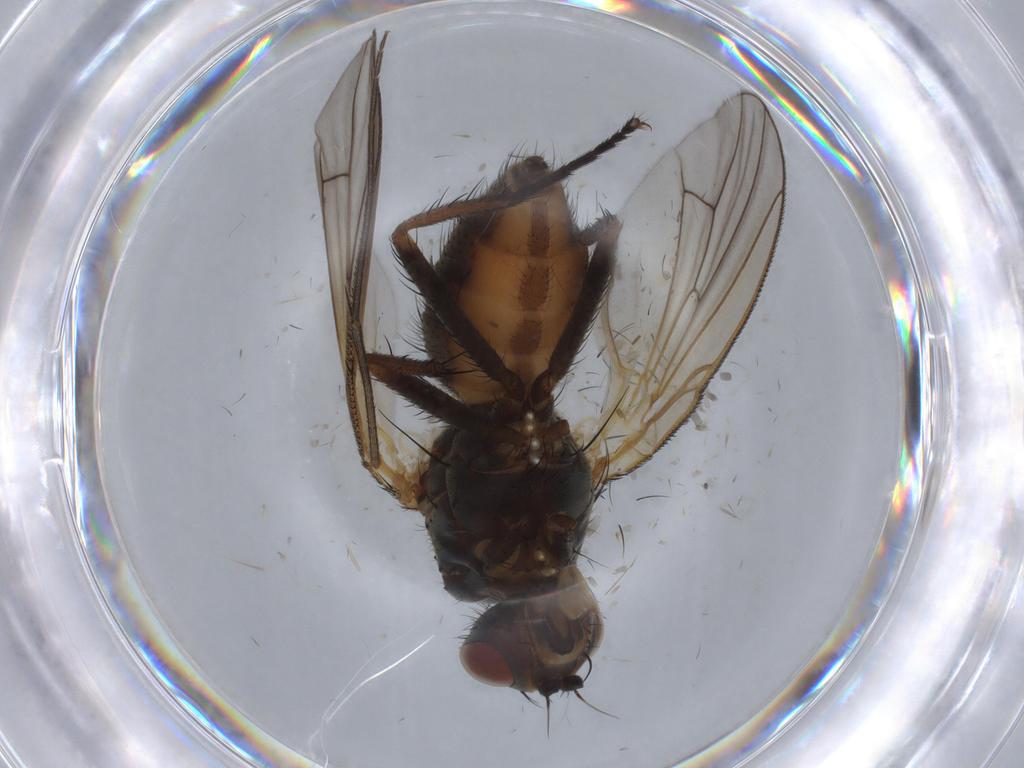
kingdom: Animalia
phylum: Arthropoda
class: Insecta
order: Diptera
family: Anthomyiidae
